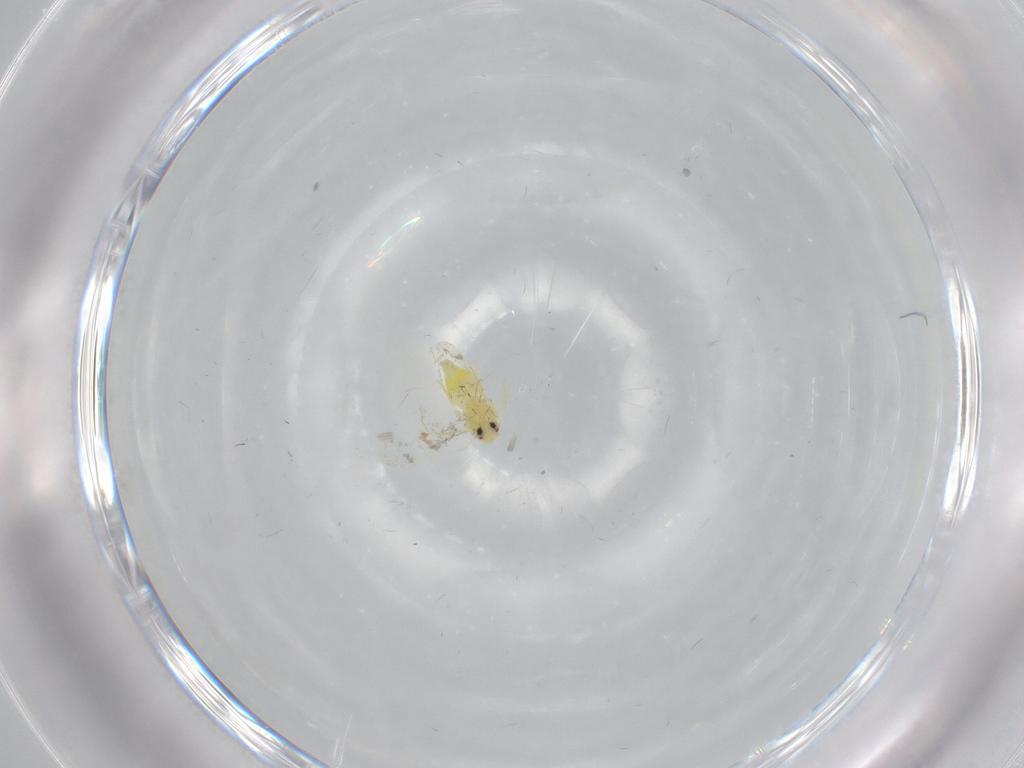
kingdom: Animalia
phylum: Arthropoda
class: Insecta
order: Hemiptera
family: Aleyrodidae
